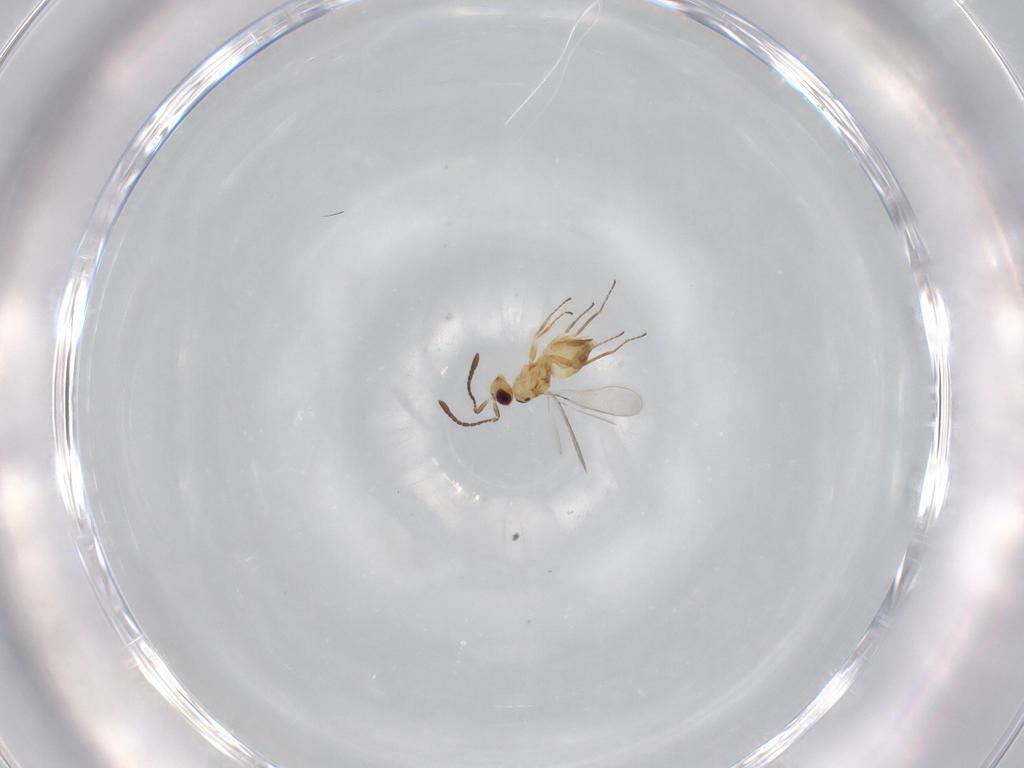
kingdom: Animalia
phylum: Arthropoda
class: Insecta
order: Hymenoptera
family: Mymaridae
